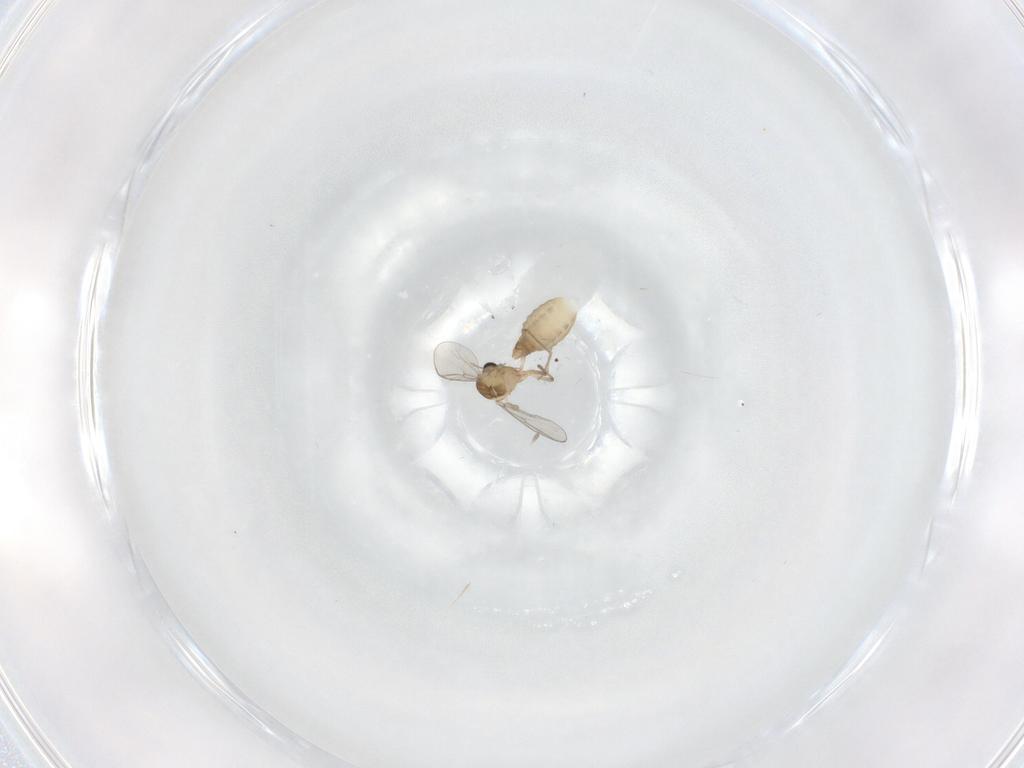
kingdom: Animalia
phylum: Arthropoda
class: Insecta
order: Diptera
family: Chironomidae
